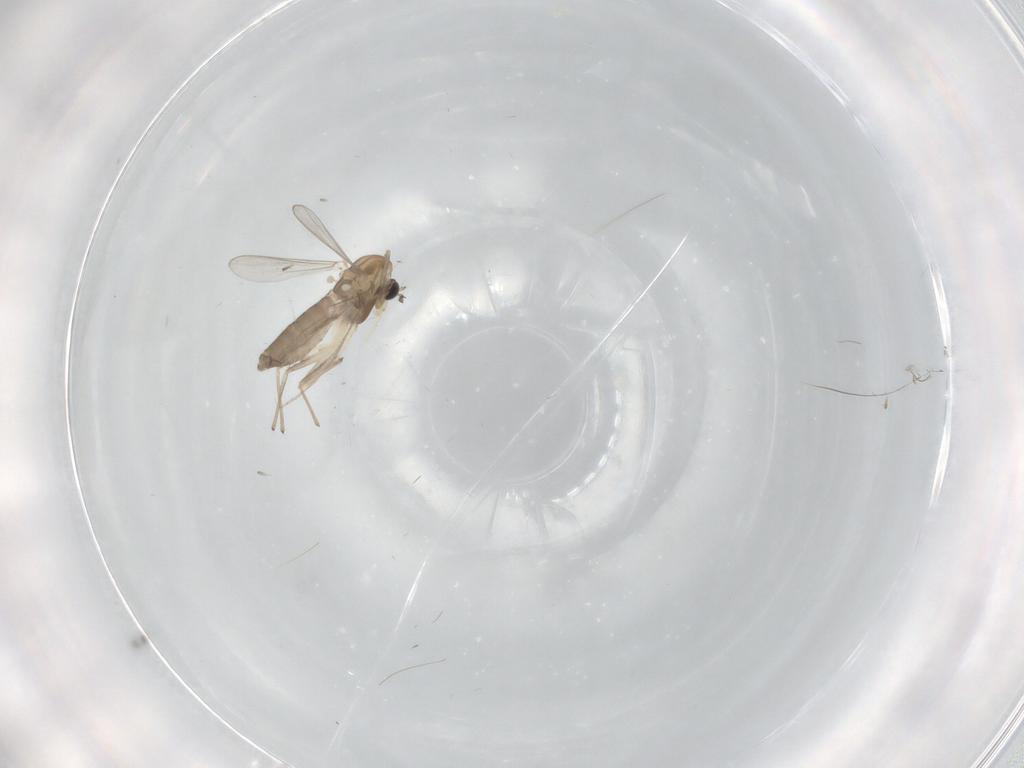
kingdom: Animalia
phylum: Arthropoda
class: Insecta
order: Diptera
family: Chironomidae
